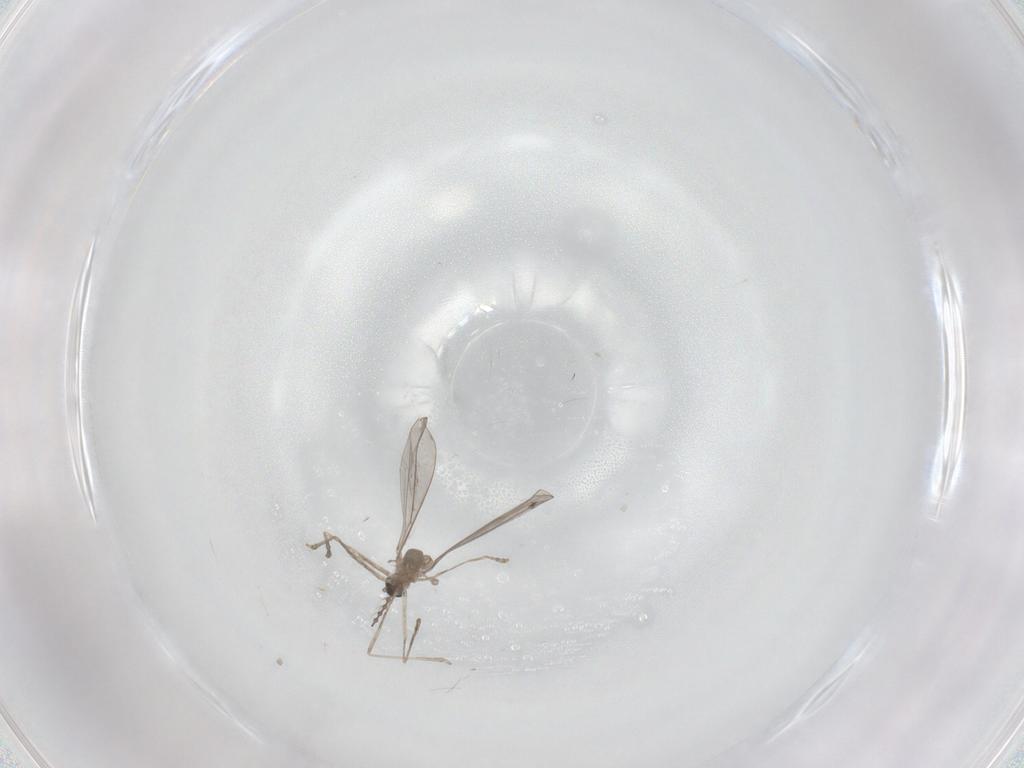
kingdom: Animalia
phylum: Arthropoda
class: Insecta
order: Diptera
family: Cecidomyiidae
